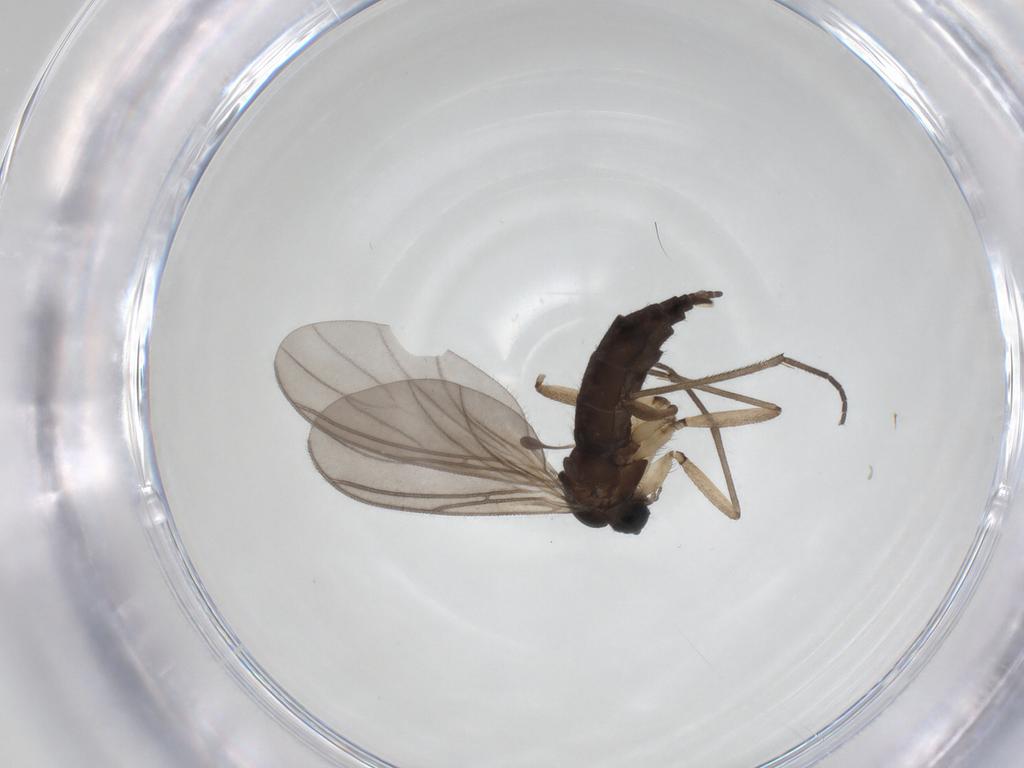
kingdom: Animalia
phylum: Arthropoda
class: Insecta
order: Diptera
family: Sciaridae
